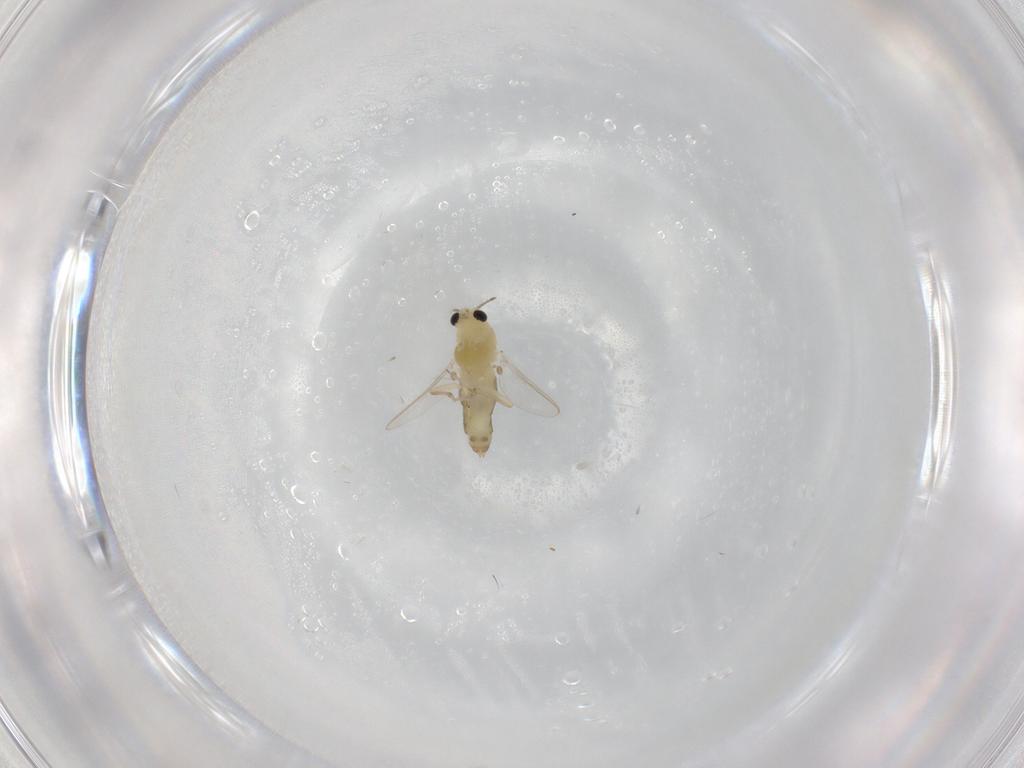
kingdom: Animalia
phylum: Arthropoda
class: Insecta
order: Diptera
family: Chironomidae
